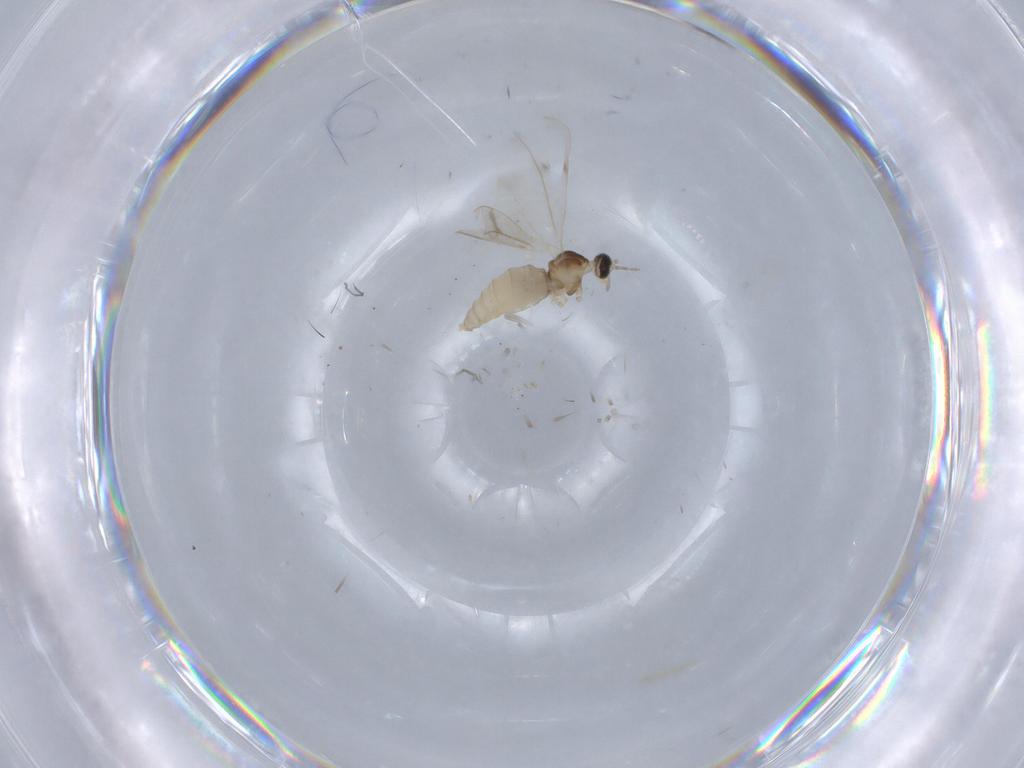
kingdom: Animalia
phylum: Arthropoda
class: Insecta
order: Diptera
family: Cecidomyiidae
